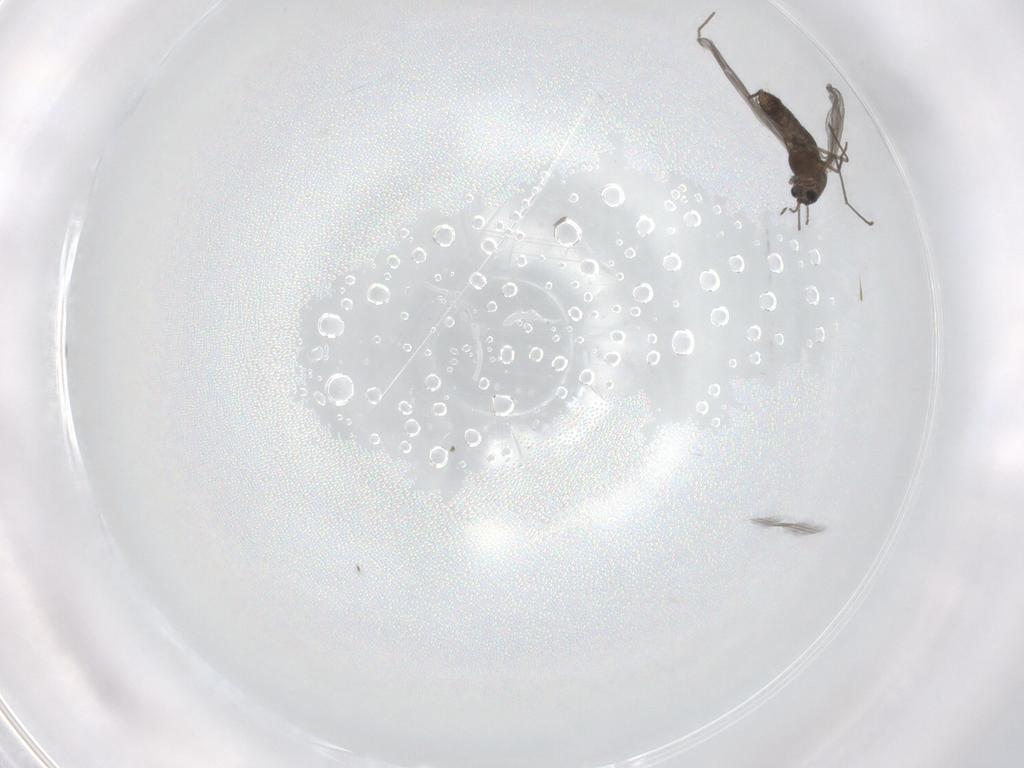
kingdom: Animalia
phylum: Arthropoda
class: Insecta
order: Diptera
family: Chironomidae
